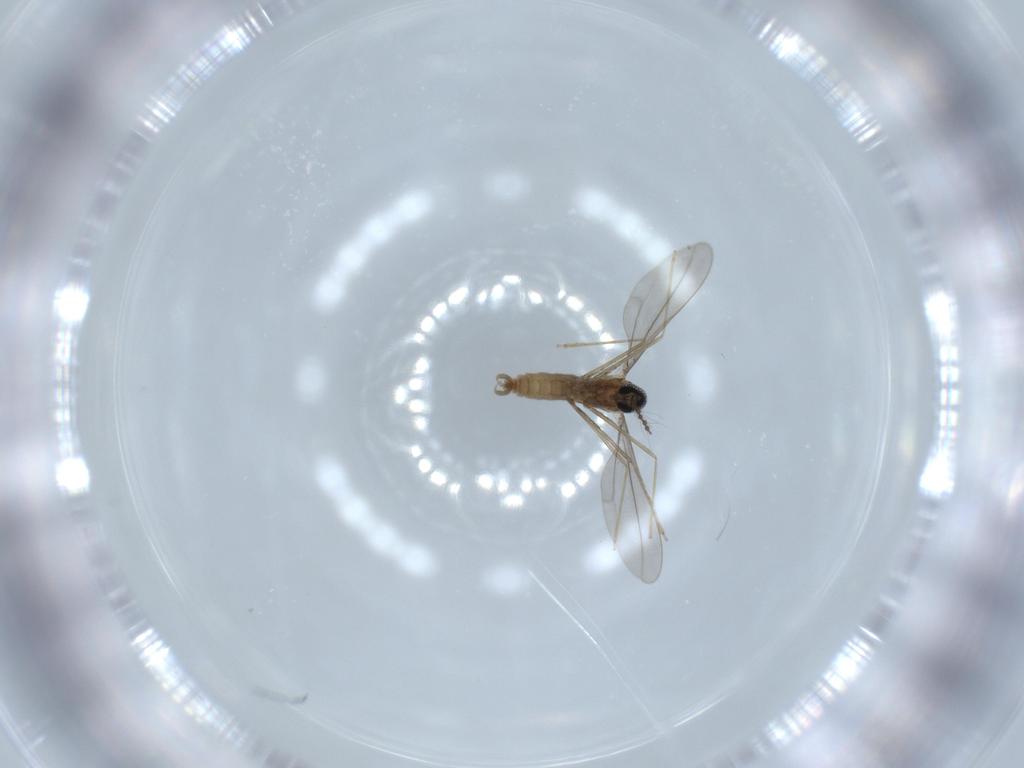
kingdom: Animalia
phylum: Arthropoda
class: Insecta
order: Diptera
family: Cecidomyiidae
